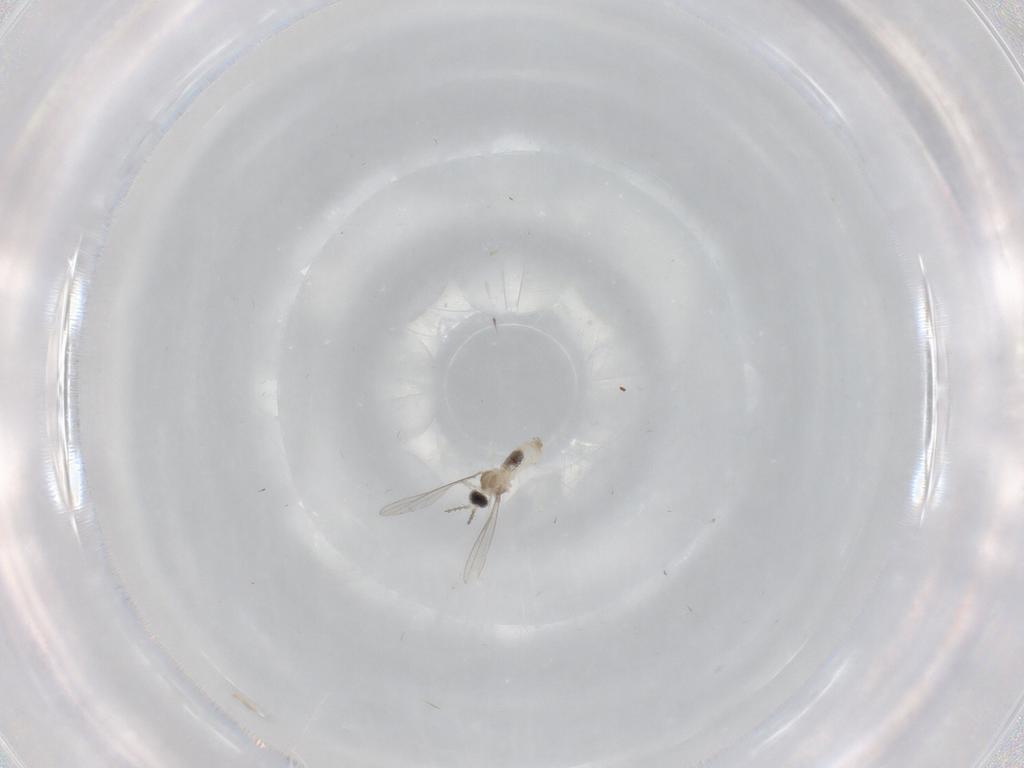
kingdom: Animalia
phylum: Arthropoda
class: Insecta
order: Diptera
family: Cecidomyiidae
